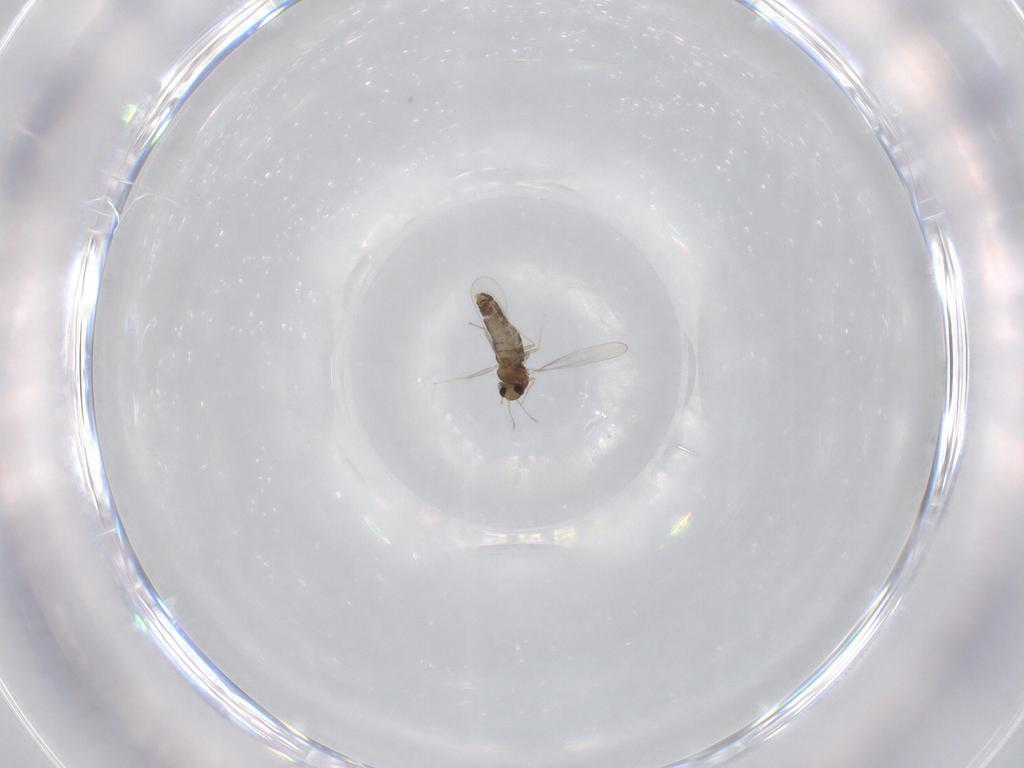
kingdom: Animalia
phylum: Arthropoda
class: Insecta
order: Diptera
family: Chironomidae
